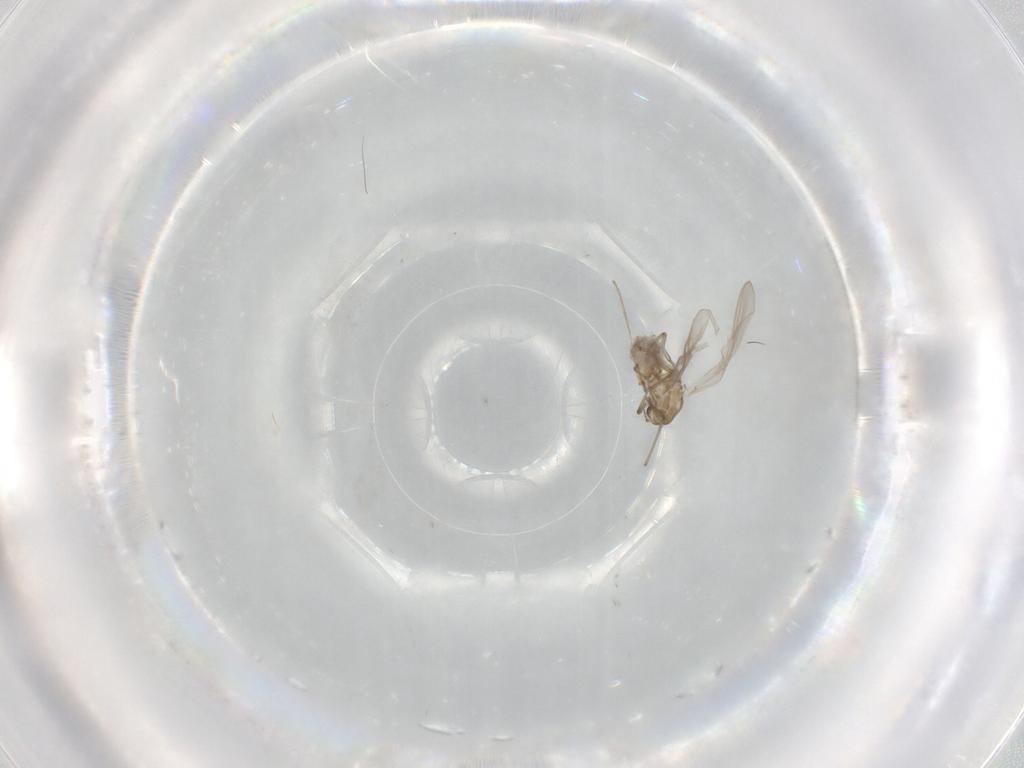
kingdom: Animalia
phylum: Arthropoda
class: Insecta
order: Diptera
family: Chironomidae
